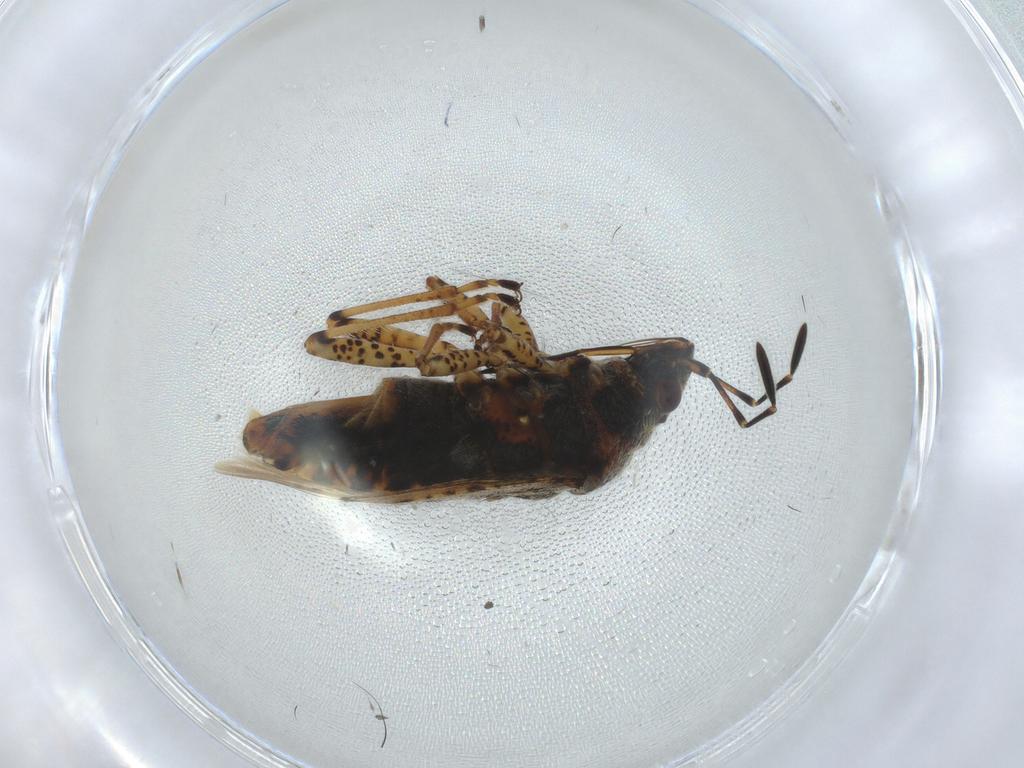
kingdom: Animalia
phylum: Arthropoda
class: Insecta
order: Hemiptera
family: Lygaeidae
